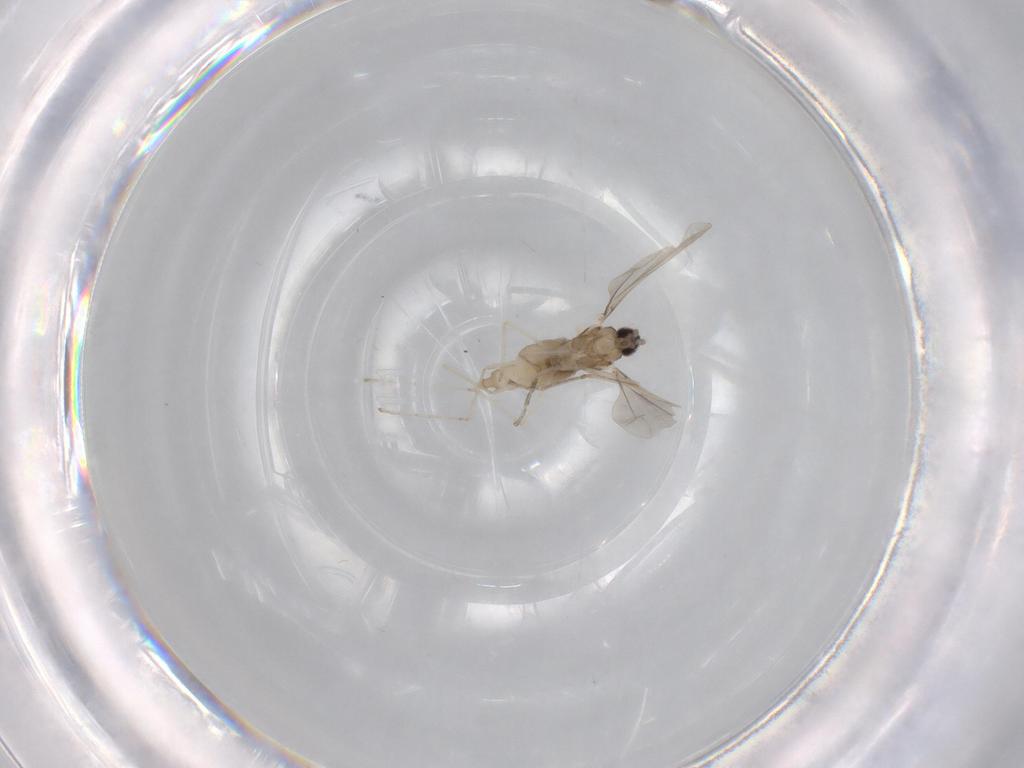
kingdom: Animalia
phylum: Arthropoda
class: Insecta
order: Diptera
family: Cecidomyiidae
